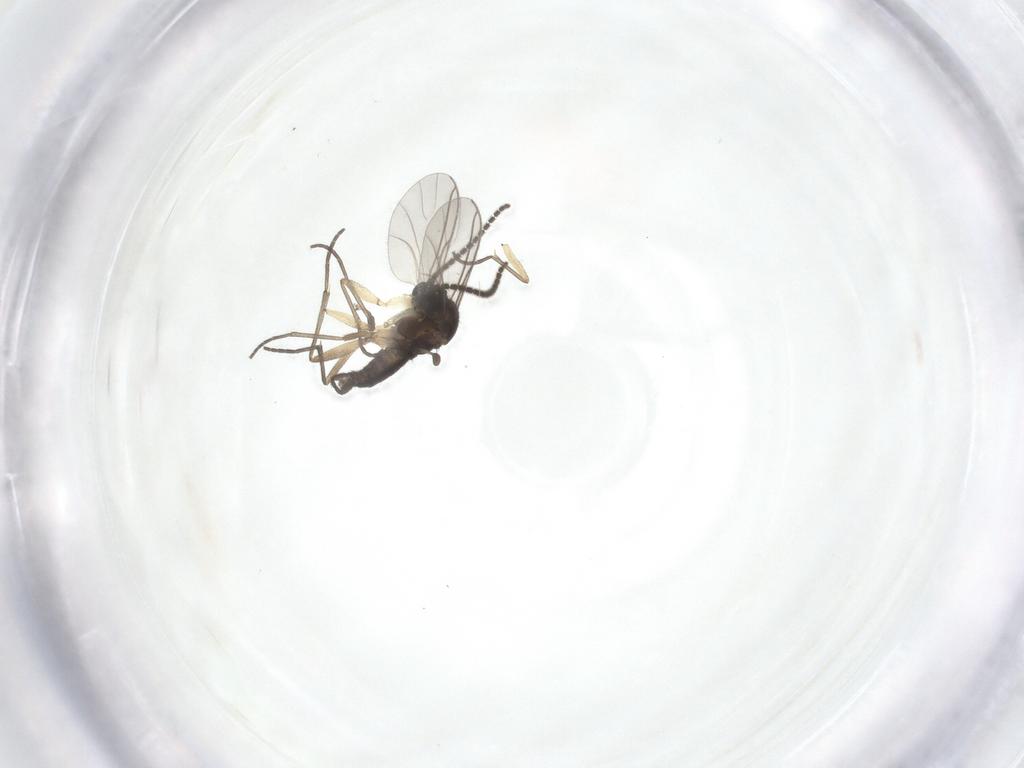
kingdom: Animalia
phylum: Arthropoda
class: Insecta
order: Diptera
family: Sciaridae
